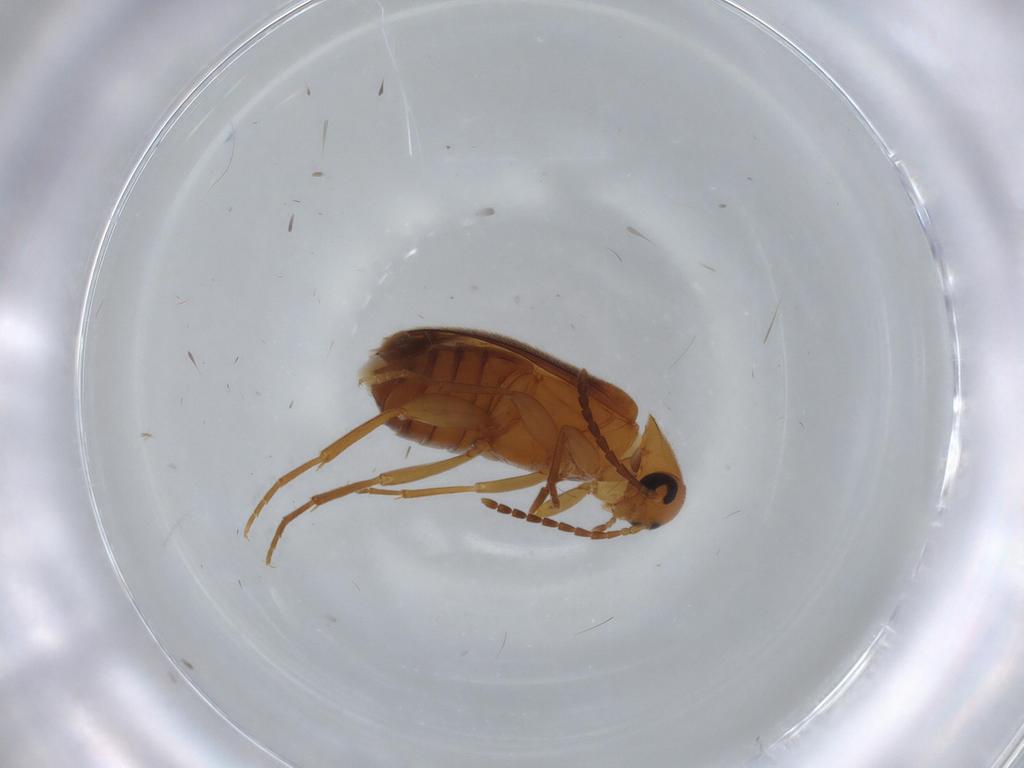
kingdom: Animalia
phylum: Arthropoda
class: Insecta
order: Coleoptera
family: Scraptiidae
